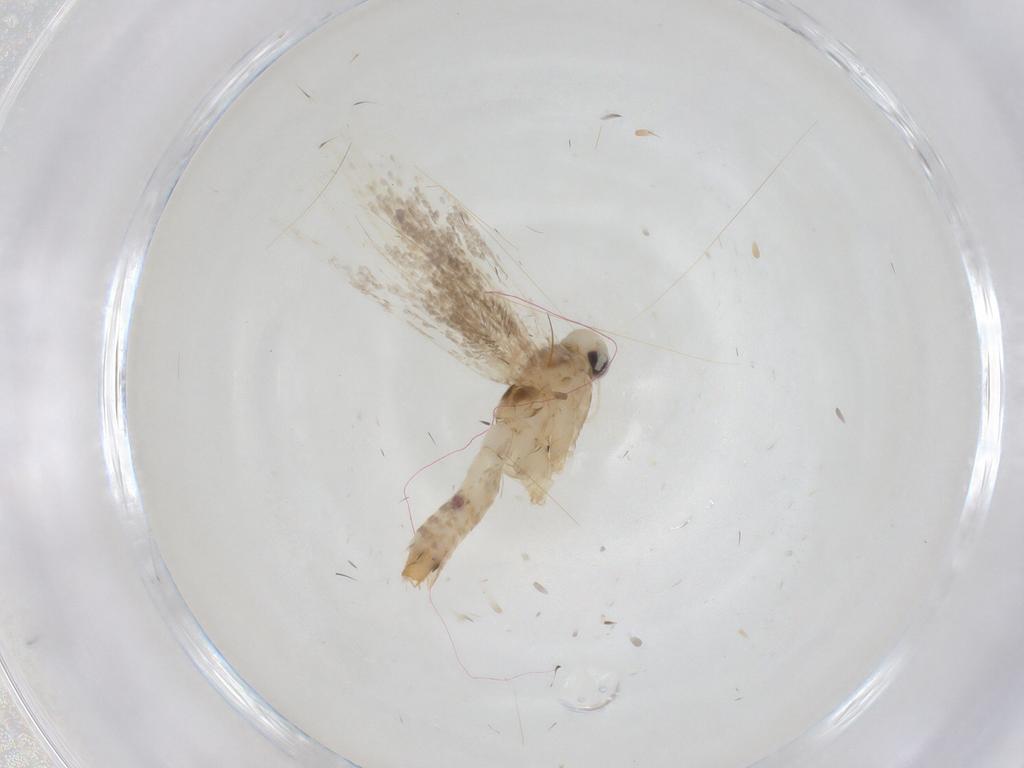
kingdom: Animalia
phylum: Arthropoda
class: Insecta
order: Lepidoptera
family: Gracillariidae
